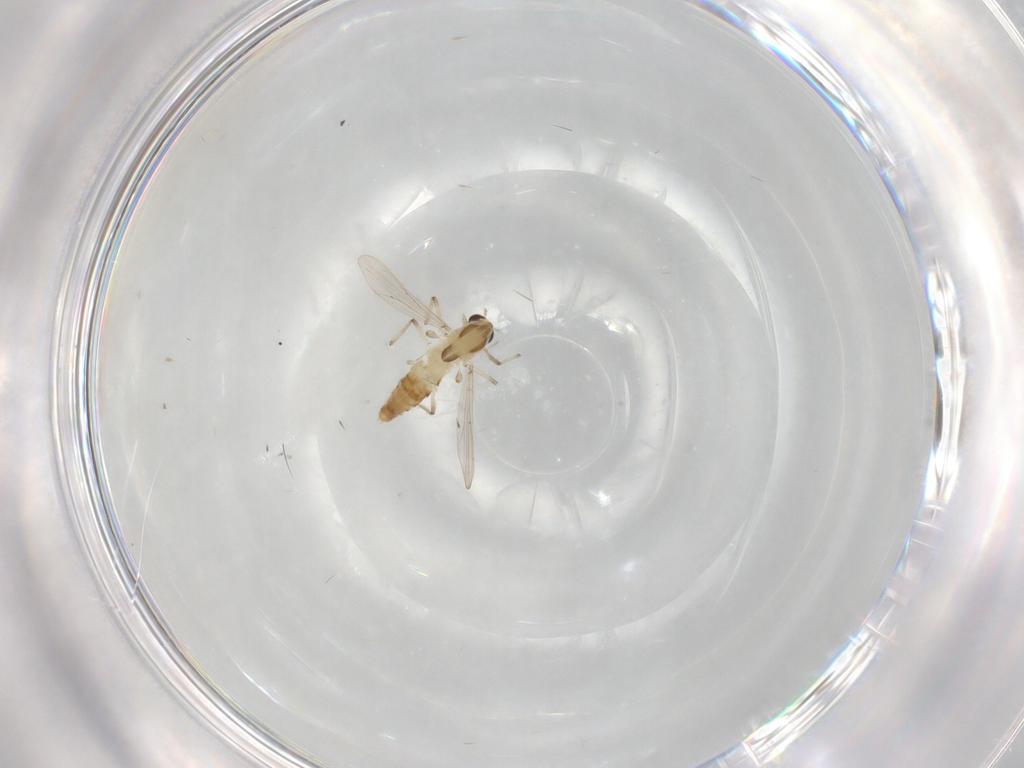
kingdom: Animalia
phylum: Arthropoda
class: Insecta
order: Diptera
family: Chironomidae
